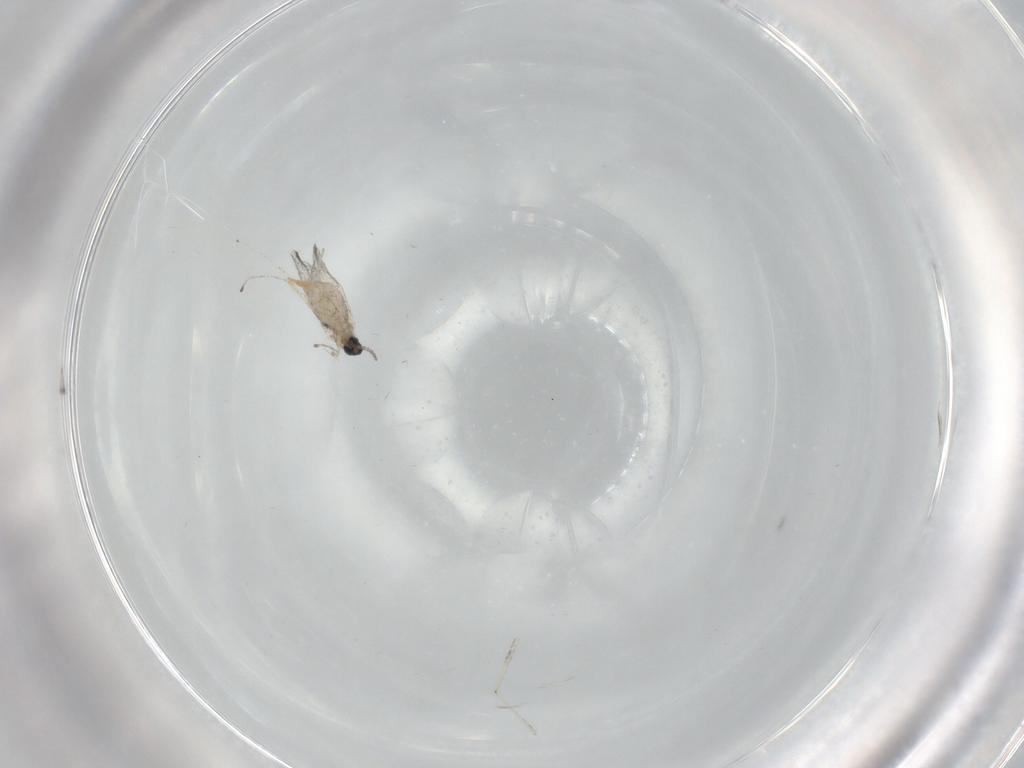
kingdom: Animalia
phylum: Arthropoda
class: Insecta
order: Diptera
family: Cecidomyiidae
